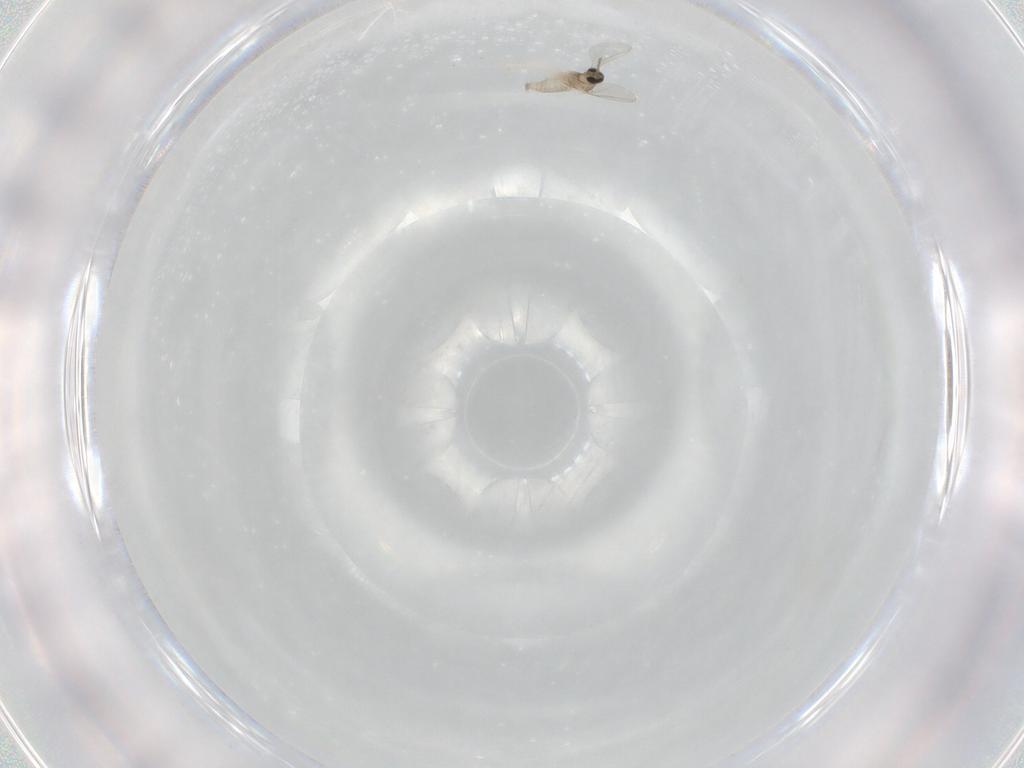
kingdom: Animalia
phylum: Arthropoda
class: Insecta
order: Diptera
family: Cecidomyiidae
